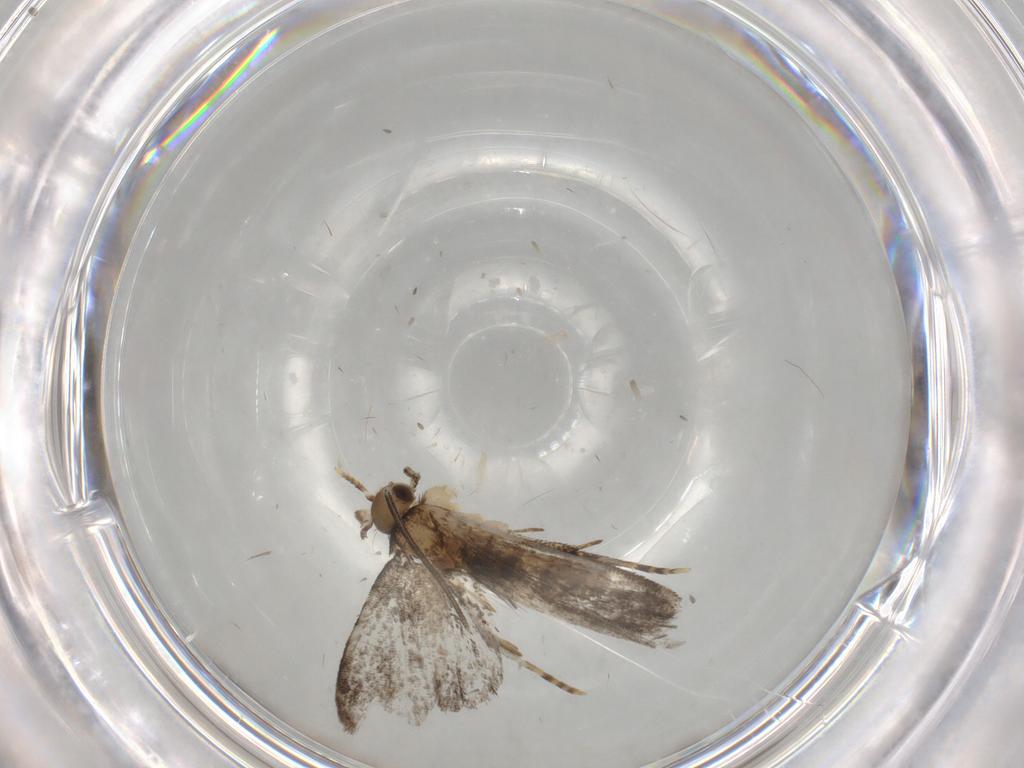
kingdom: Animalia
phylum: Arthropoda
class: Insecta
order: Lepidoptera
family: Dryadaulidae
